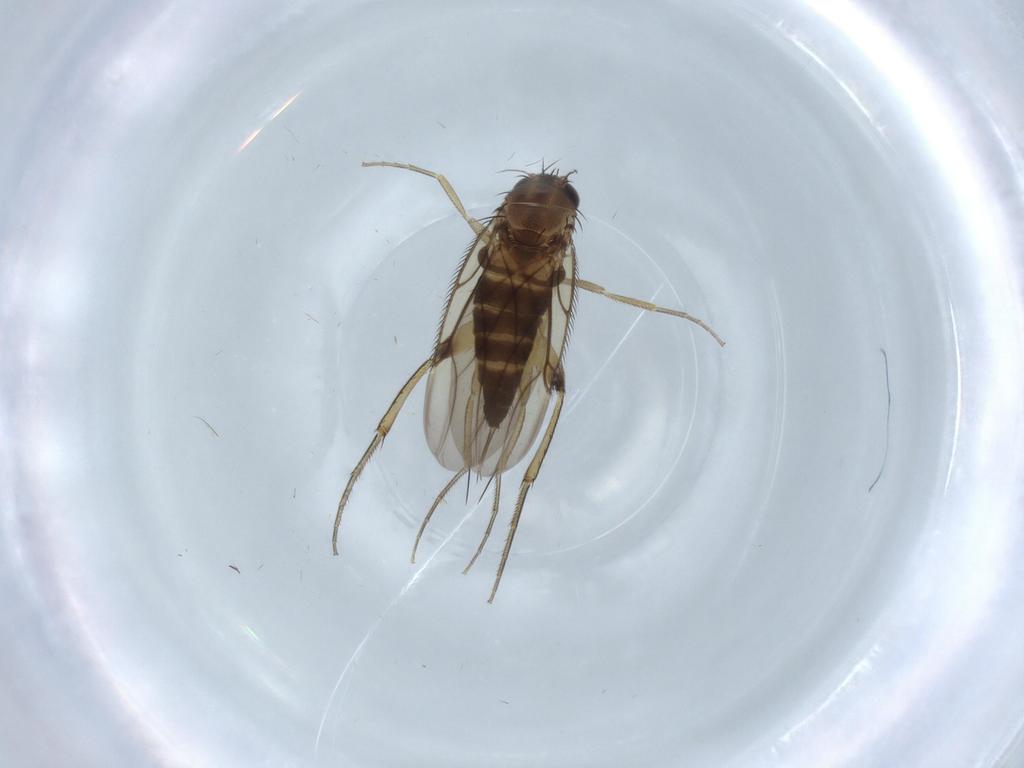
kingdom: Animalia
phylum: Arthropoda
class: Insecta
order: Diptera
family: Phoridae
